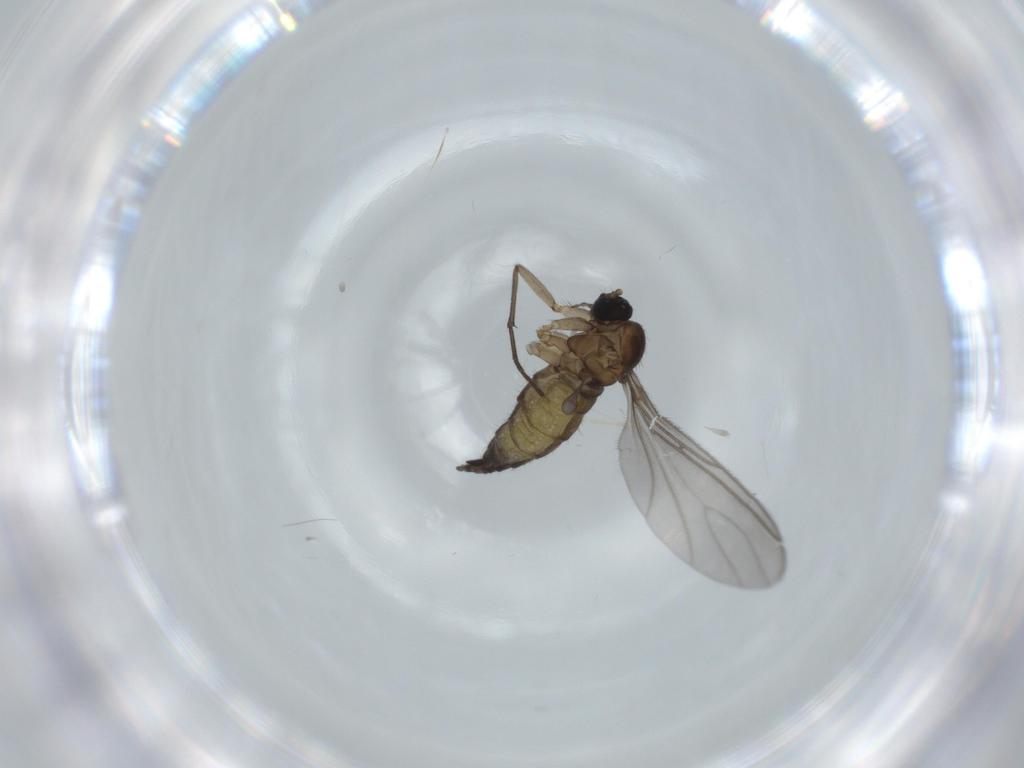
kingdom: Animalia
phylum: Arthropoda
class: Insecta
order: Diptera
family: Sciaridae
